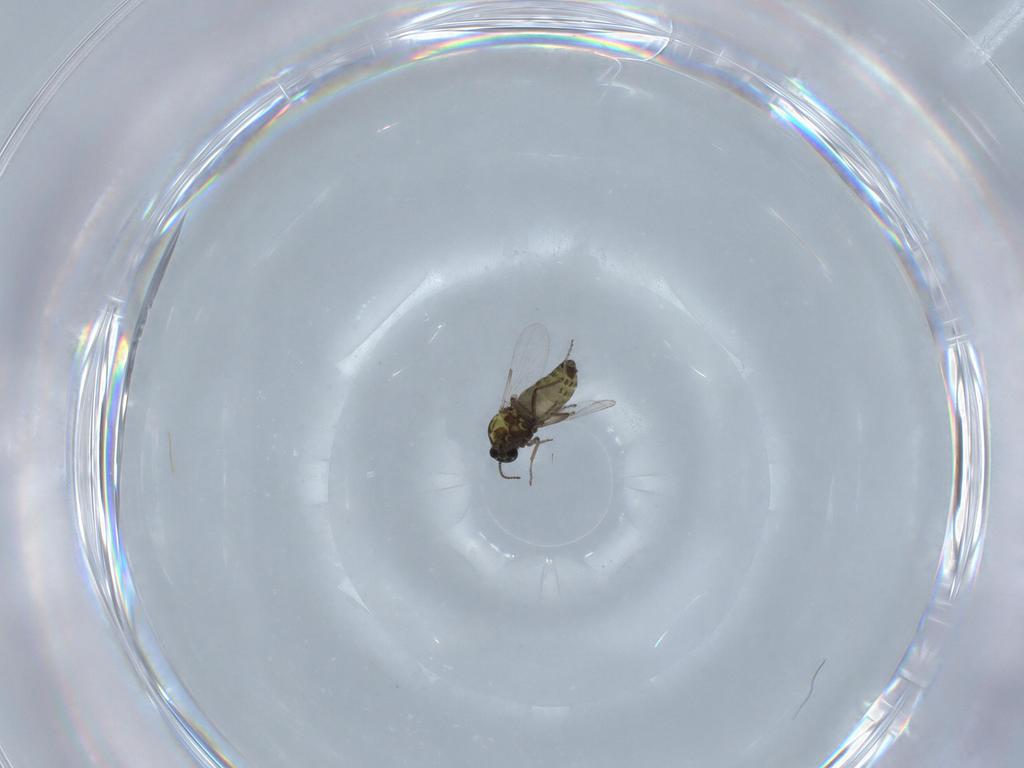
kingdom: Animalia
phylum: Arthropoda
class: Insecta
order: Diptera
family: Ceratopogonidae
